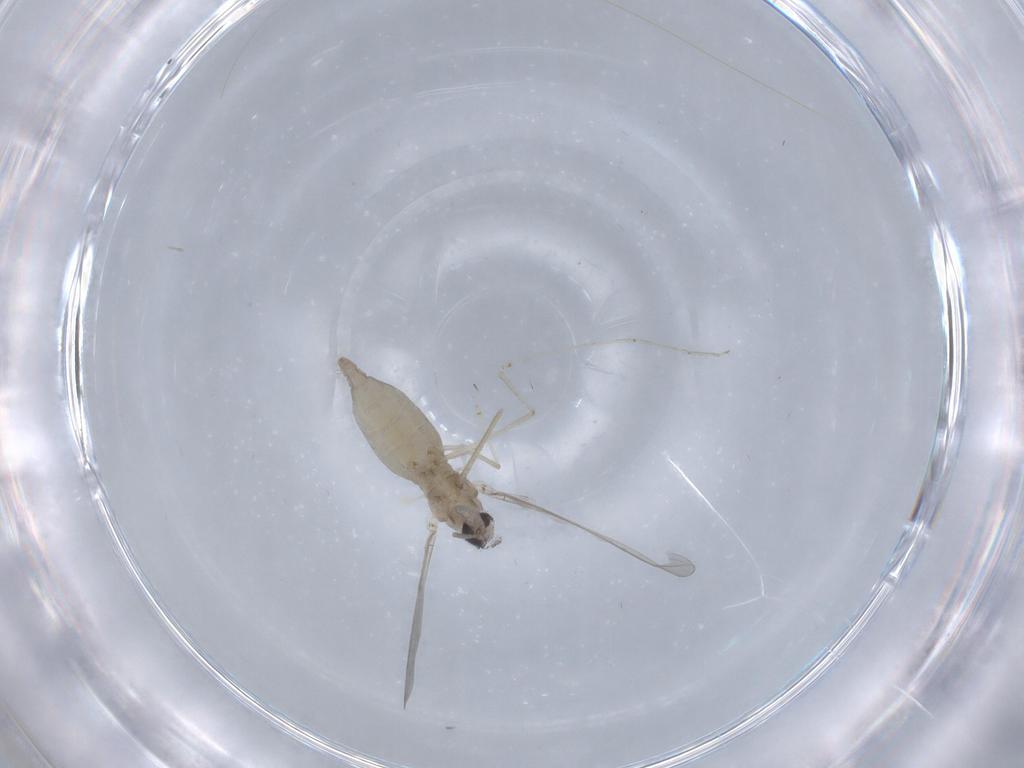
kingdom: Animalia
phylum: Arthropoda
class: Insecta
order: Diptera
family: Cecidomyiidae
